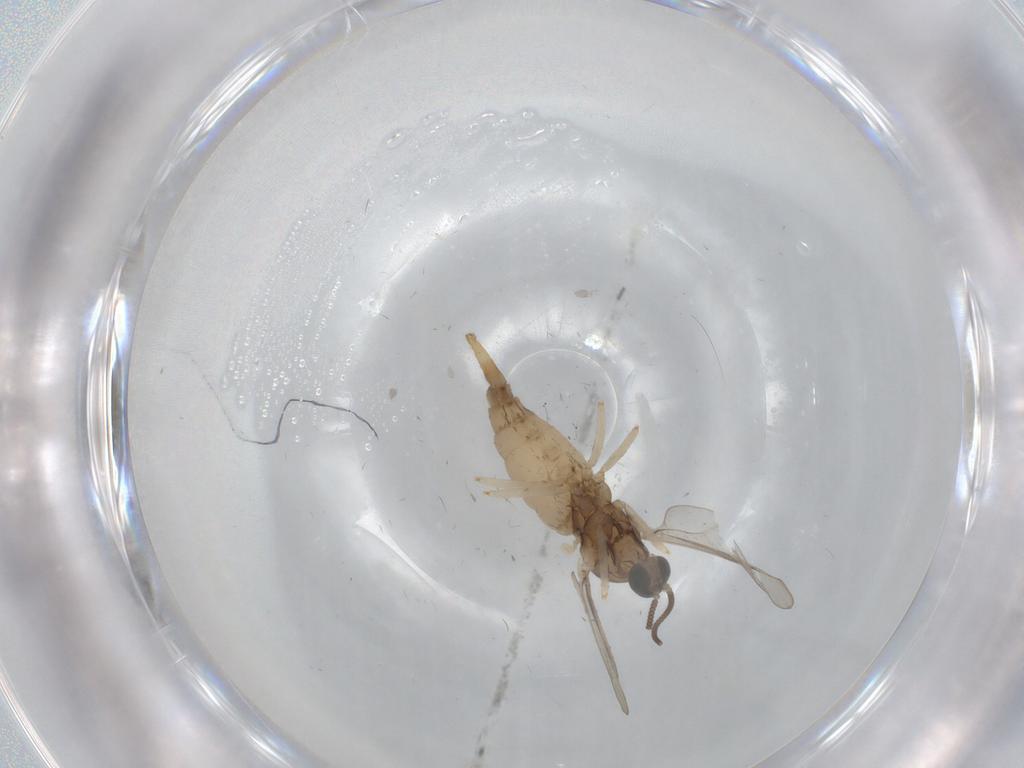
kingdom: Animalia
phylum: Arthropoda
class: Insecta
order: Diptera
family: Cecidomyiidae
